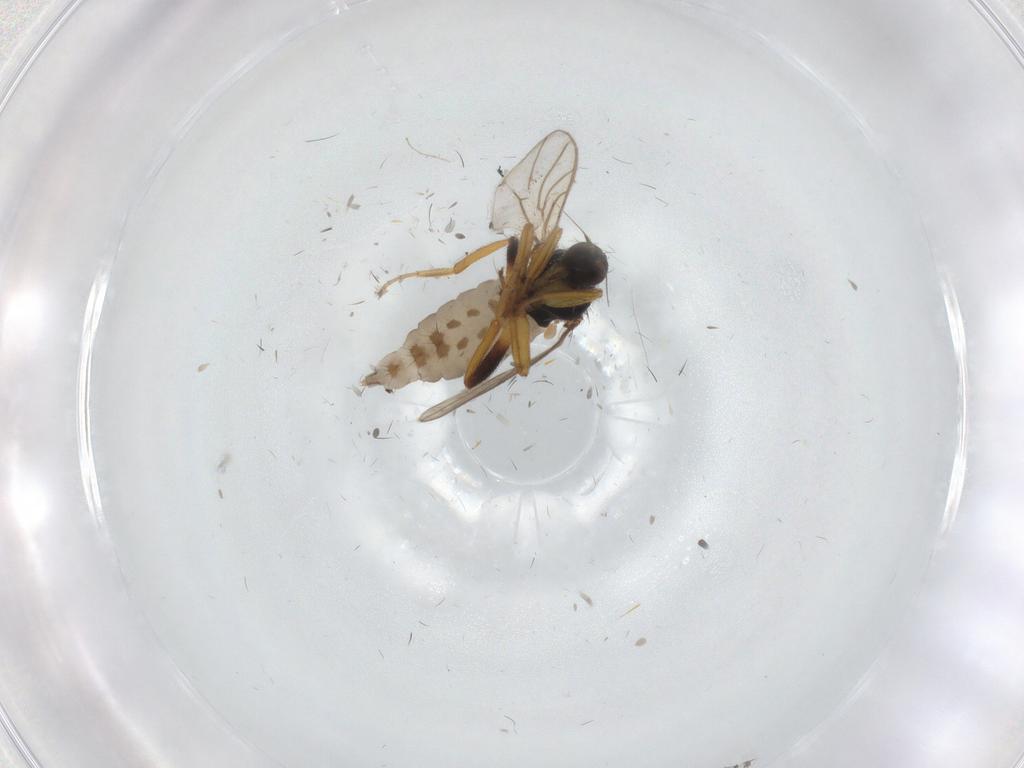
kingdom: Animalia
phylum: Arthropoda
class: Insecta
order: Diptera
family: Hybotidae
